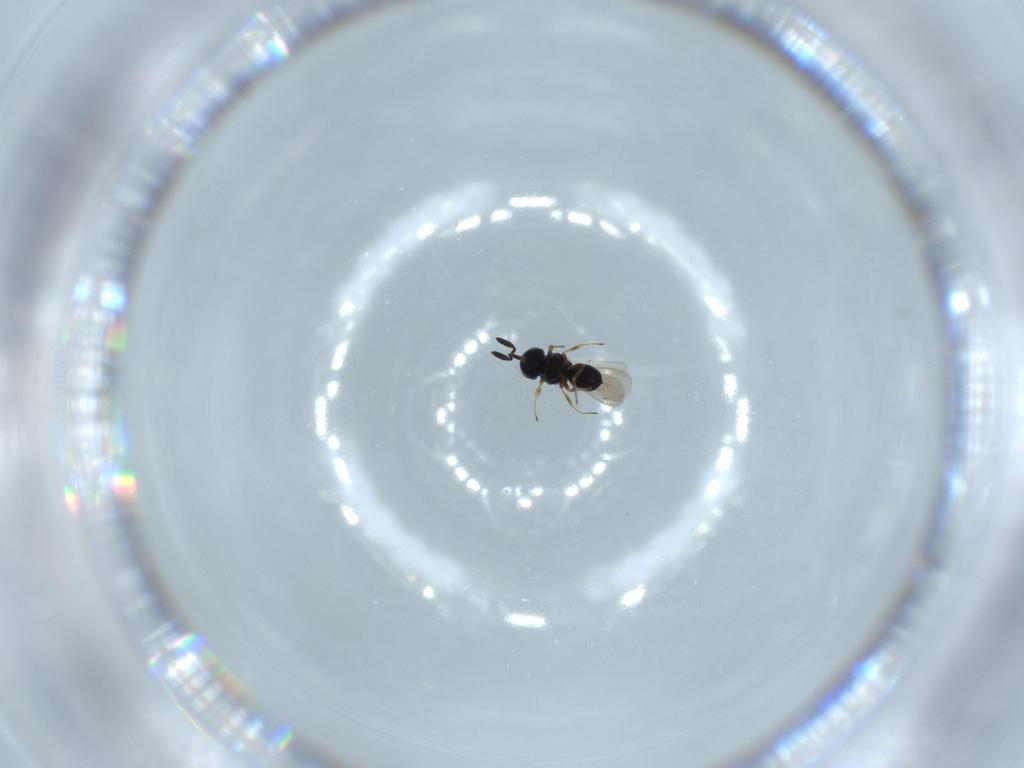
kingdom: Animalia
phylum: Arthropoda
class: Insecta
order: Hymenoptera
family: Scelionidae
